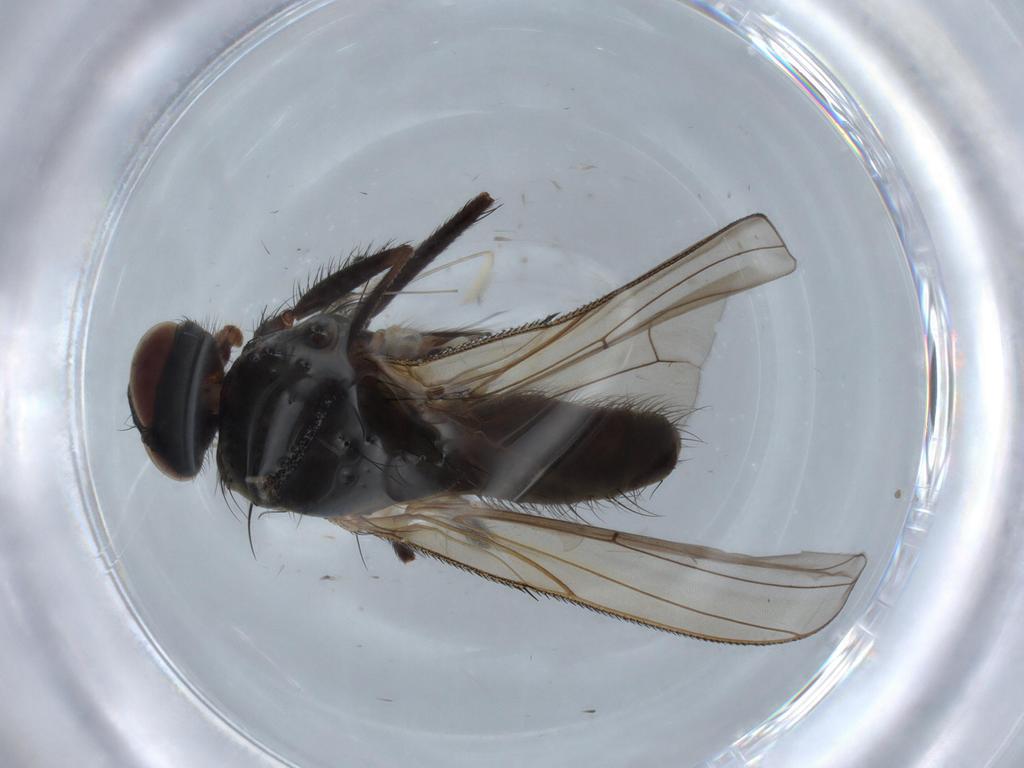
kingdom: Animalia
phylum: Arthropoda
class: Insecta
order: Diptera
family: Anthomyiidae
